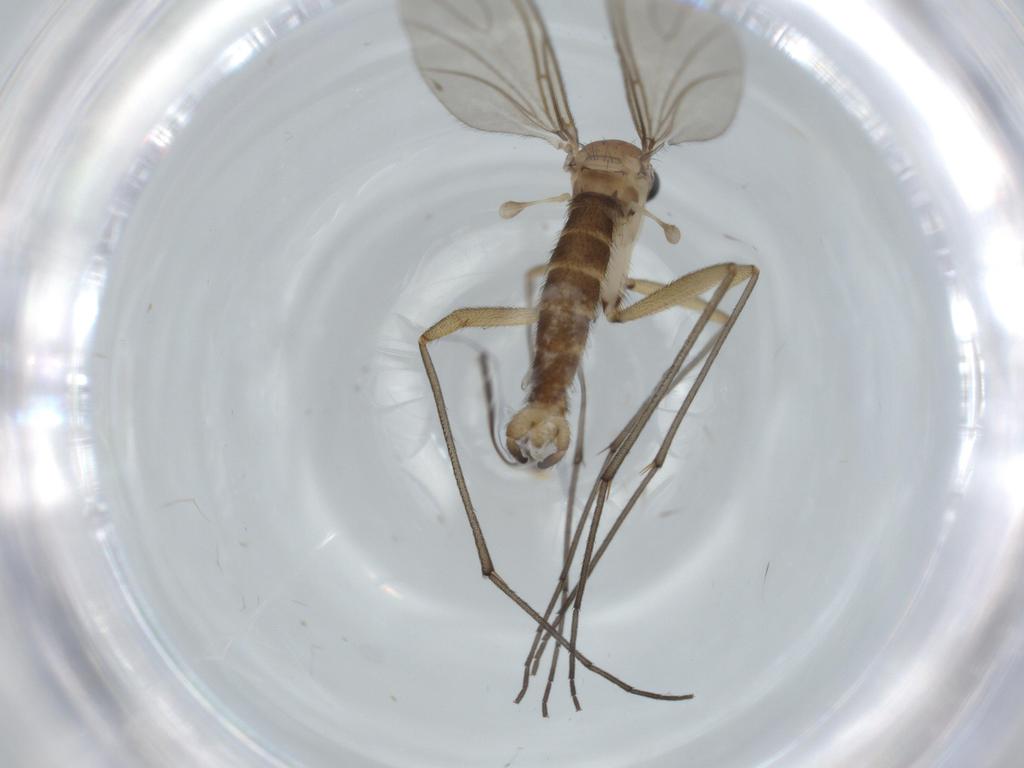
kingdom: Animalia
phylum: Arthropoda
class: Insecta
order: Diptera
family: Sciaridae
